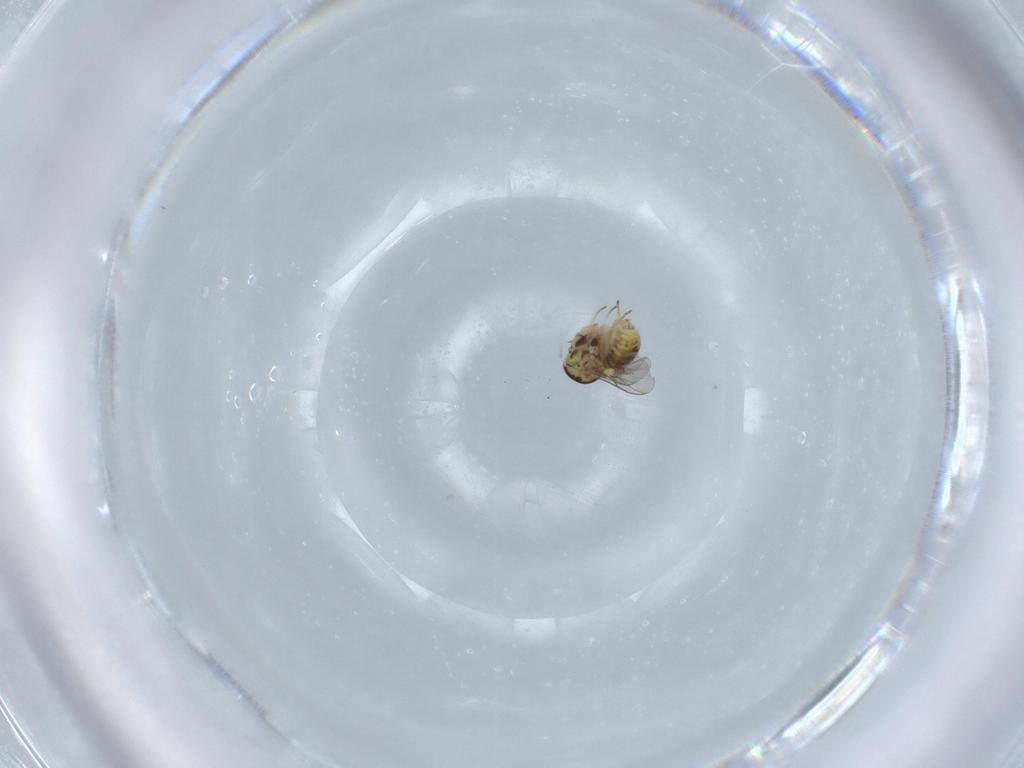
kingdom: Animalia
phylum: Arthropoda
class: Insecta
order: Diptera
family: Bombyliidae
